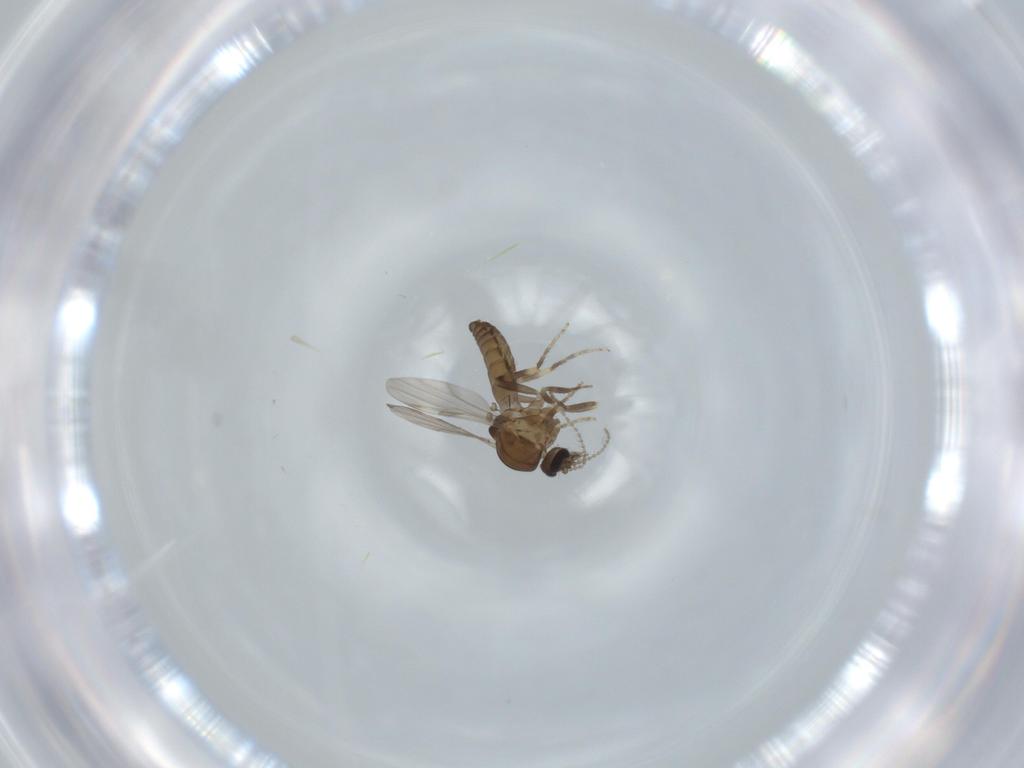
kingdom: Animalia
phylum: Arthropoda
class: Insecta
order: Diptera
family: Ceratopogonidae
